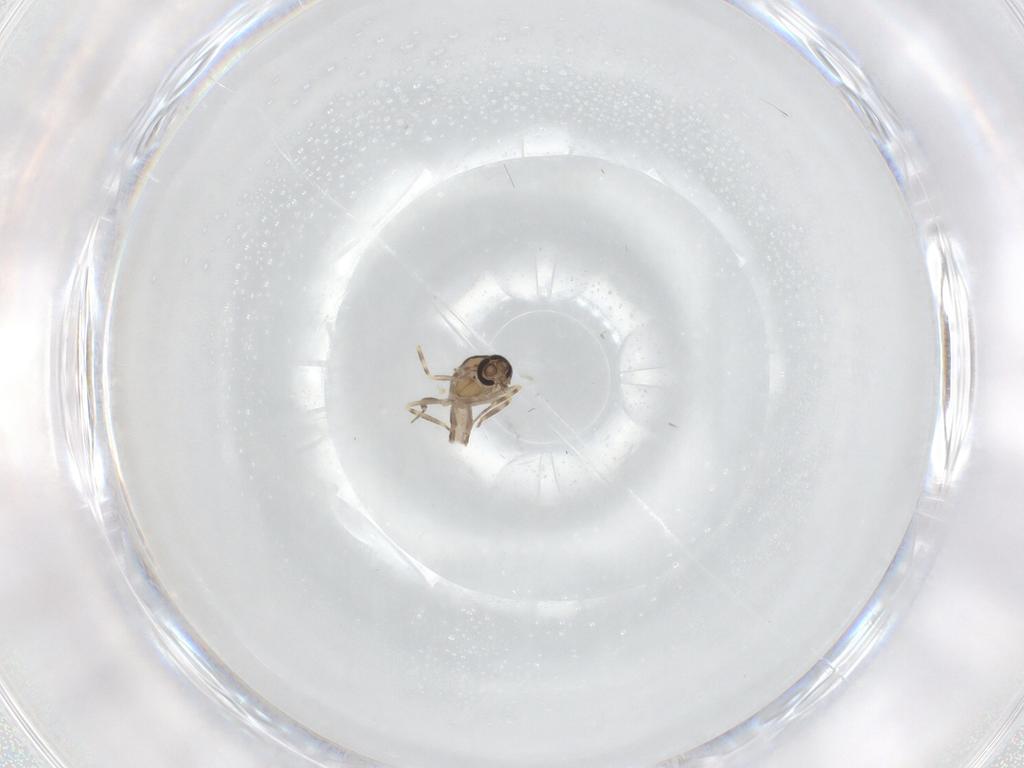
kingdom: Animalia
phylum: Arthropoda
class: Insecta
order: Diptera
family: Ceratopogonidae
